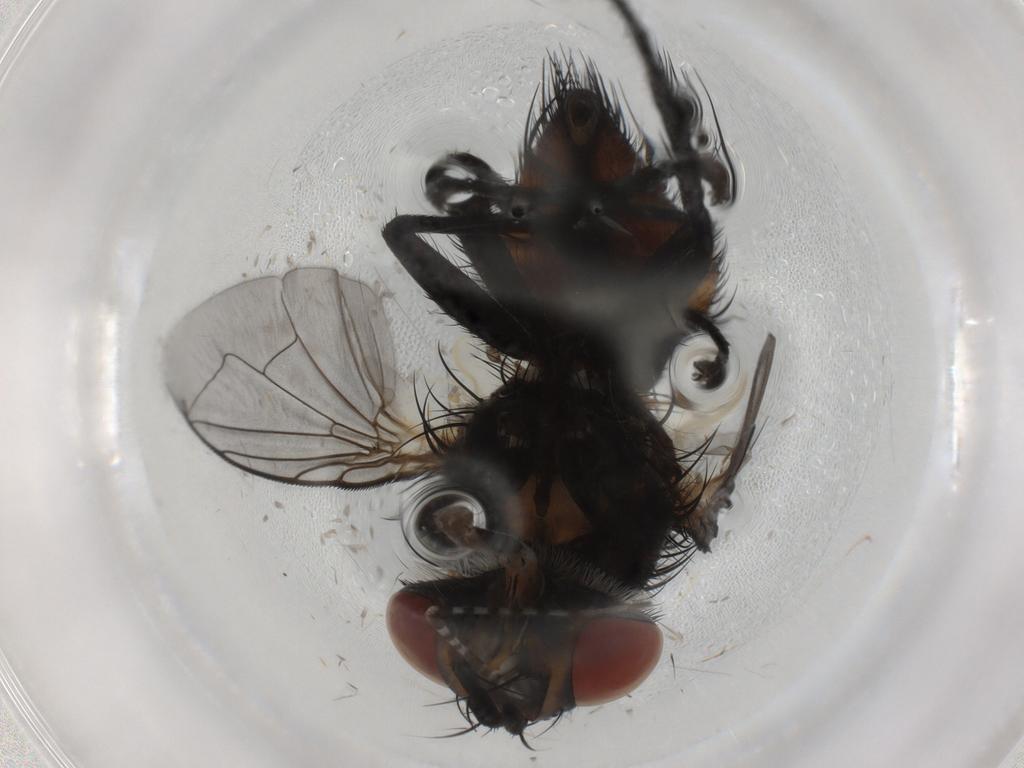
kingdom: Animalia
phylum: Arthropoda
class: Insecta
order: Diptera
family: Tachinidae
